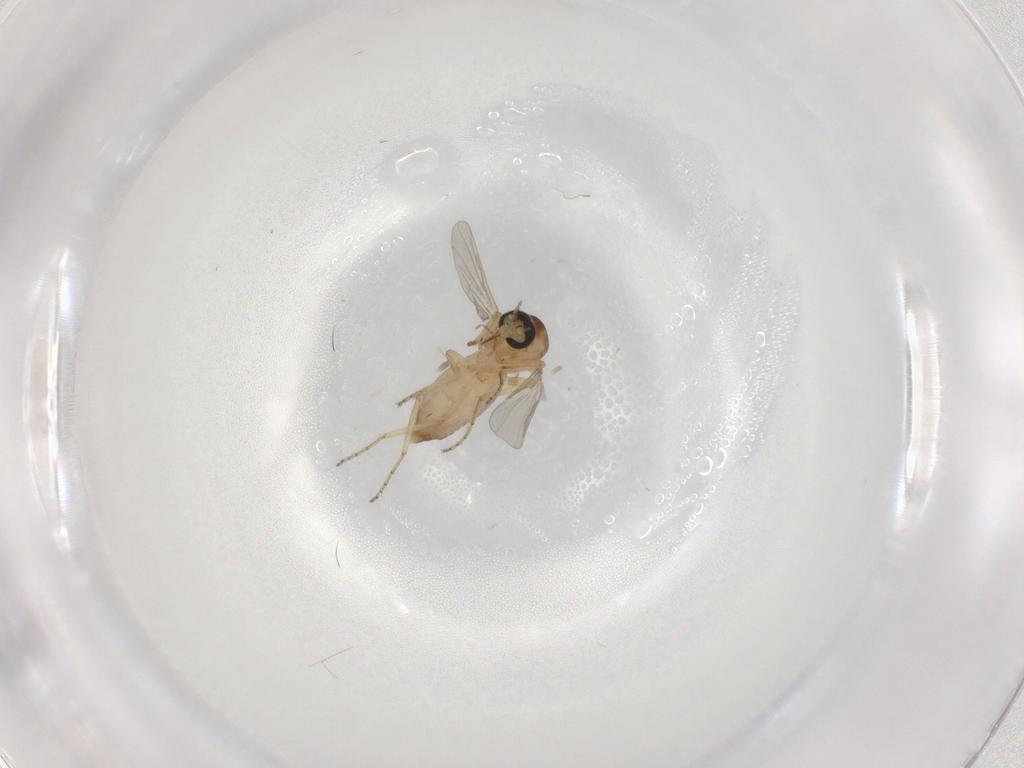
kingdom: Animalia
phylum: Arthropoda
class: Insecta
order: Diptera
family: Ceratopogonidae
